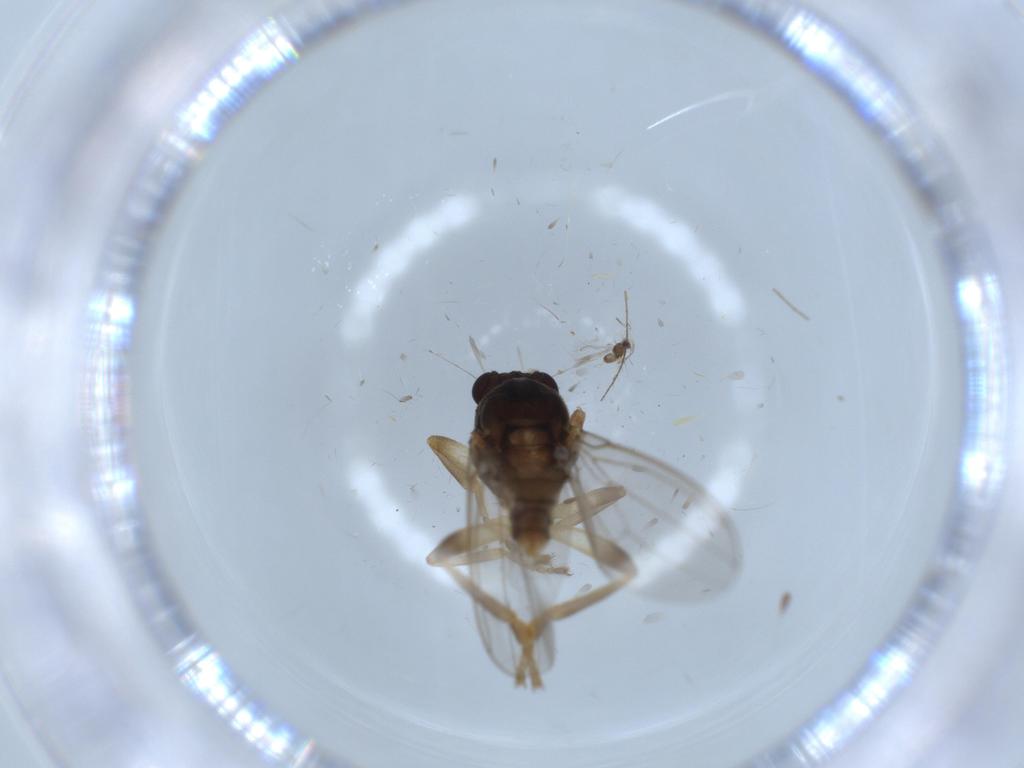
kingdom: Animalia
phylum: Arthropoda
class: Insecta
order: Diptera
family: Sphaeroceridae
